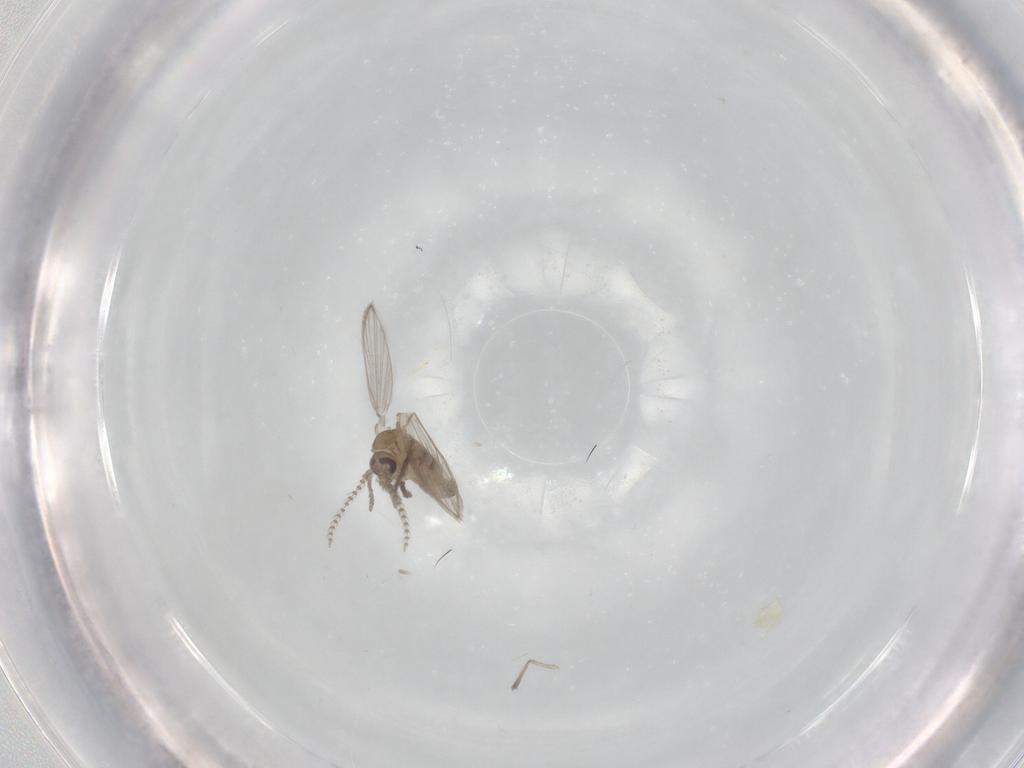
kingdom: Animalia
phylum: Arthropoda
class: Insecta
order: Diptera
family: Psychodidae
